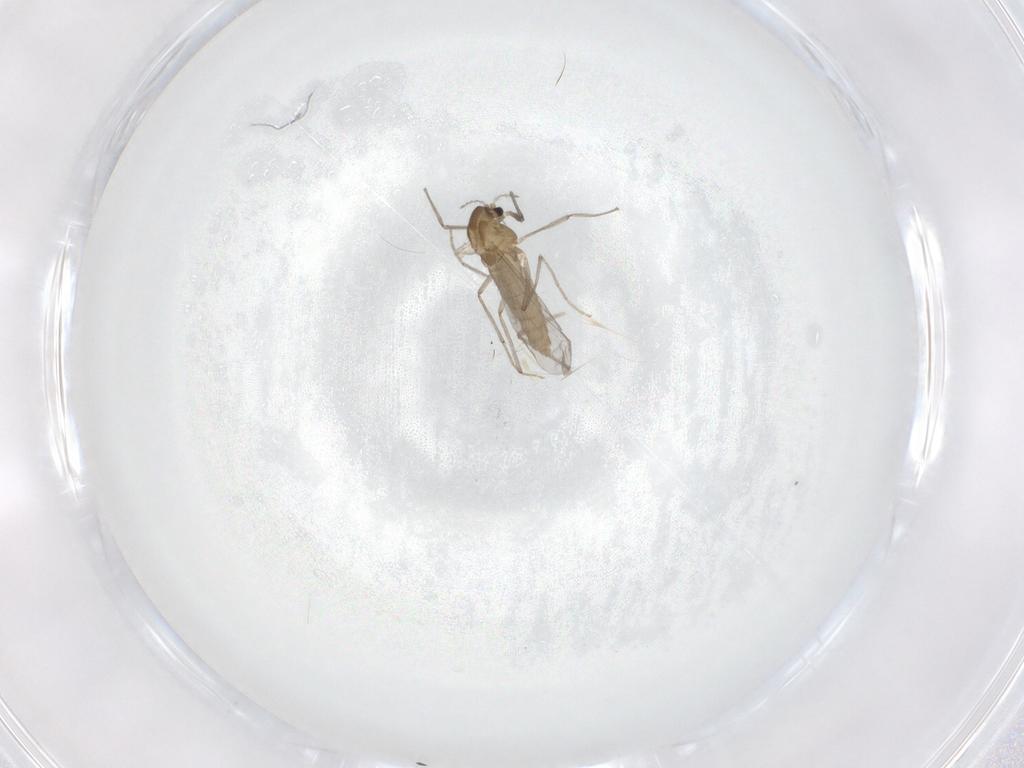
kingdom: Animalia
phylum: Arthropoda
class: Insecta
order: Diptera
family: Chironomidae
